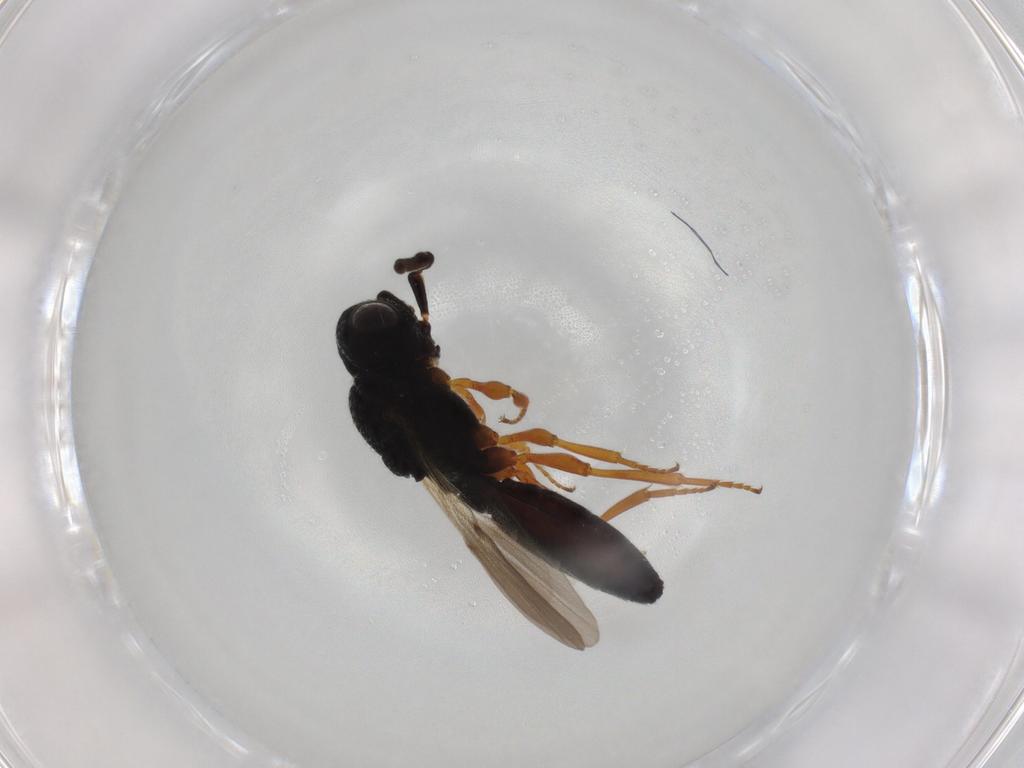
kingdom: Animalia
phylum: Arthropoda
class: Insecta
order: Hymenoptera
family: Scelionidae
